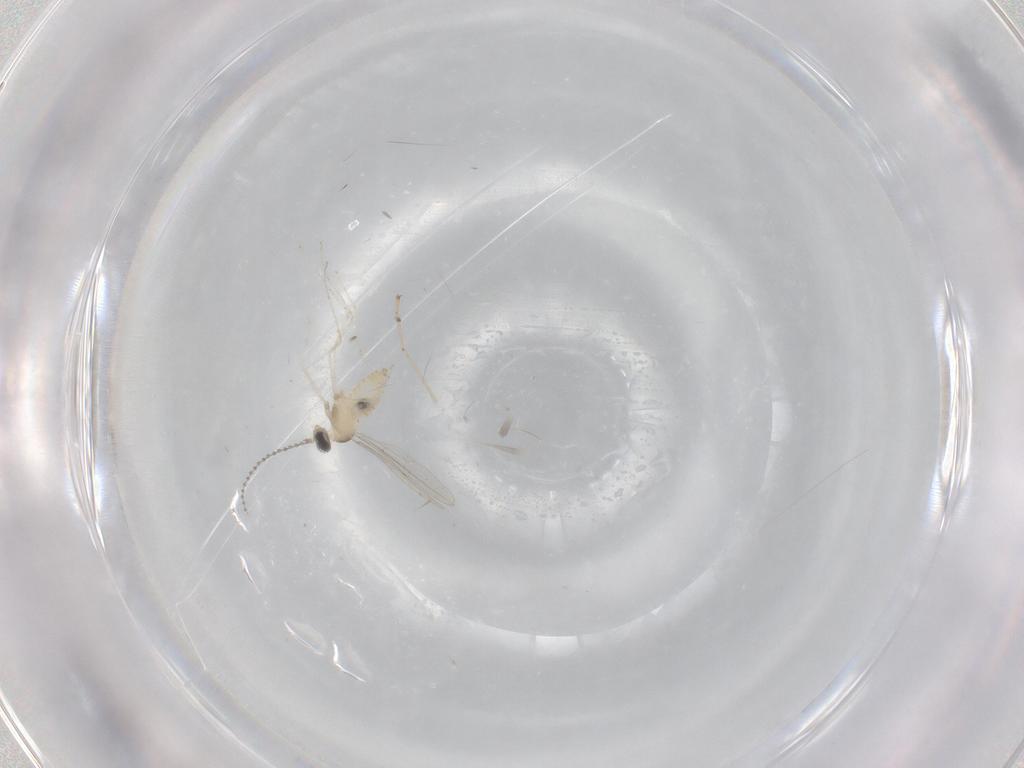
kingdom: Animalia
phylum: Arthropoda
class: Insecta
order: Diptera
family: Cecidomyiidae
